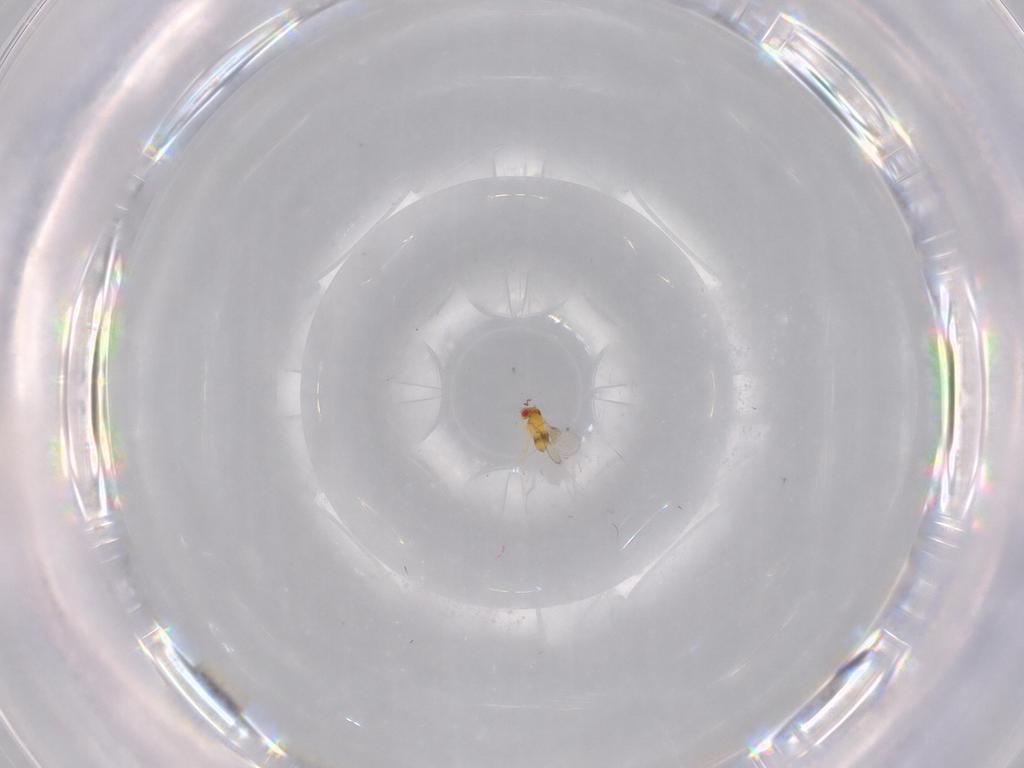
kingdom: Animalia
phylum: Arthropoda
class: Insecta
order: Hymenoptera
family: Trichogrammatidae
